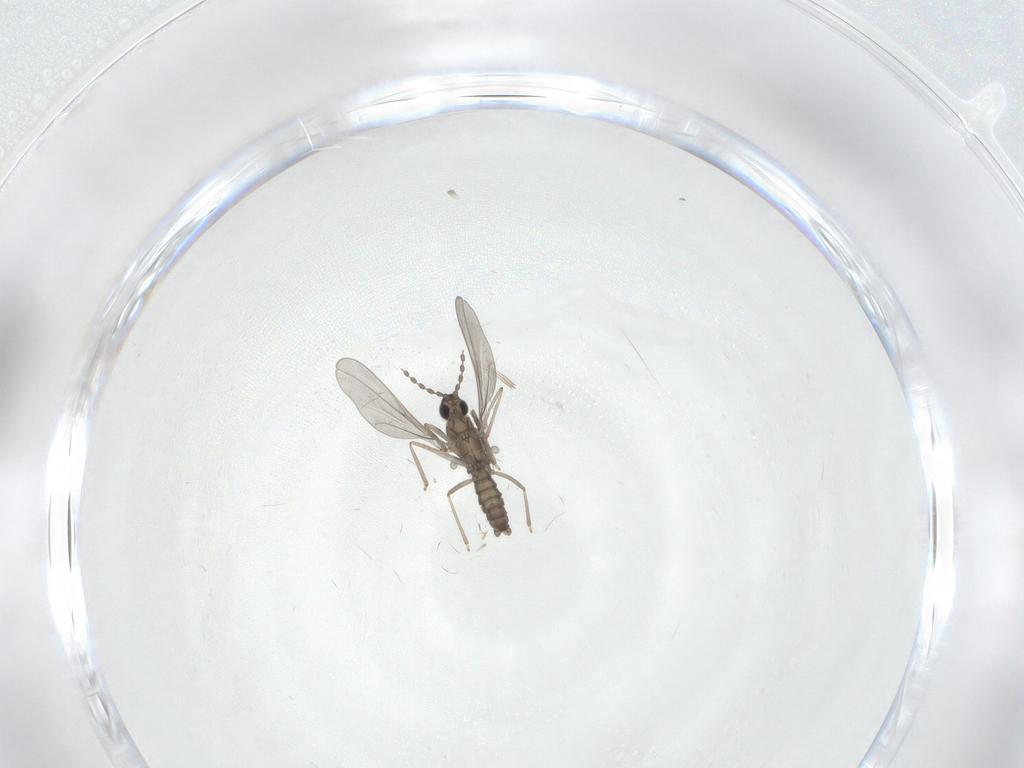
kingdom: Animalia
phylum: Arthropoda
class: Insecta
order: Diptera
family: Cecidomyiidae
